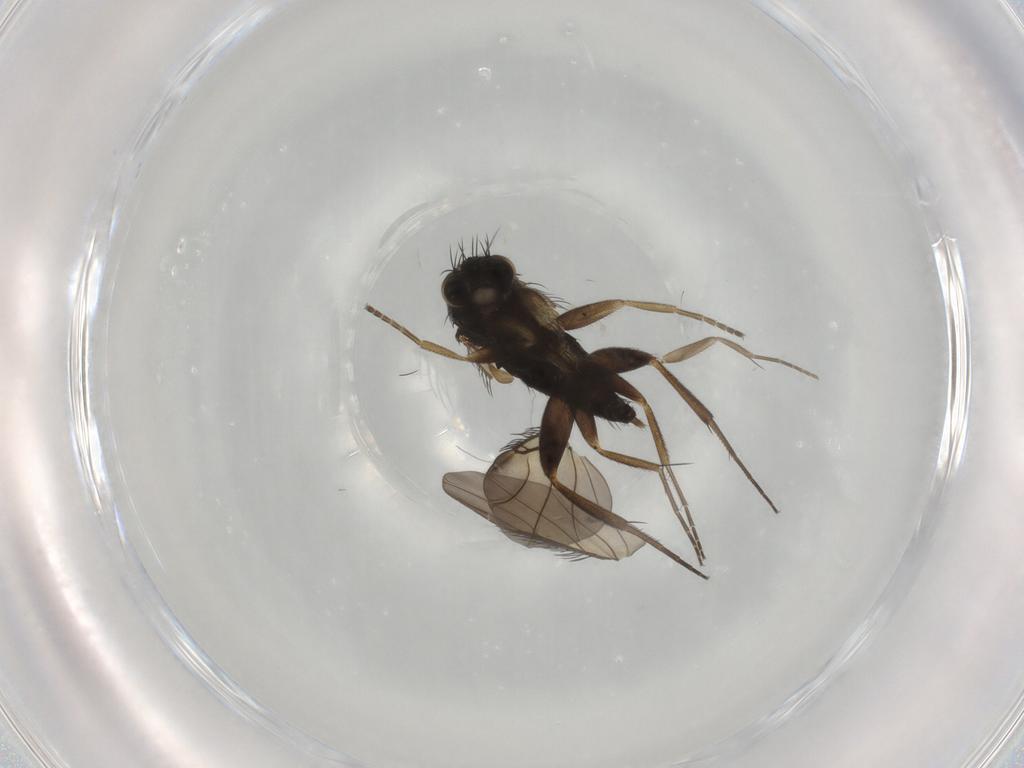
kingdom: Animalia
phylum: Arthropoda
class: Insecta
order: Diptera
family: Phoridae
